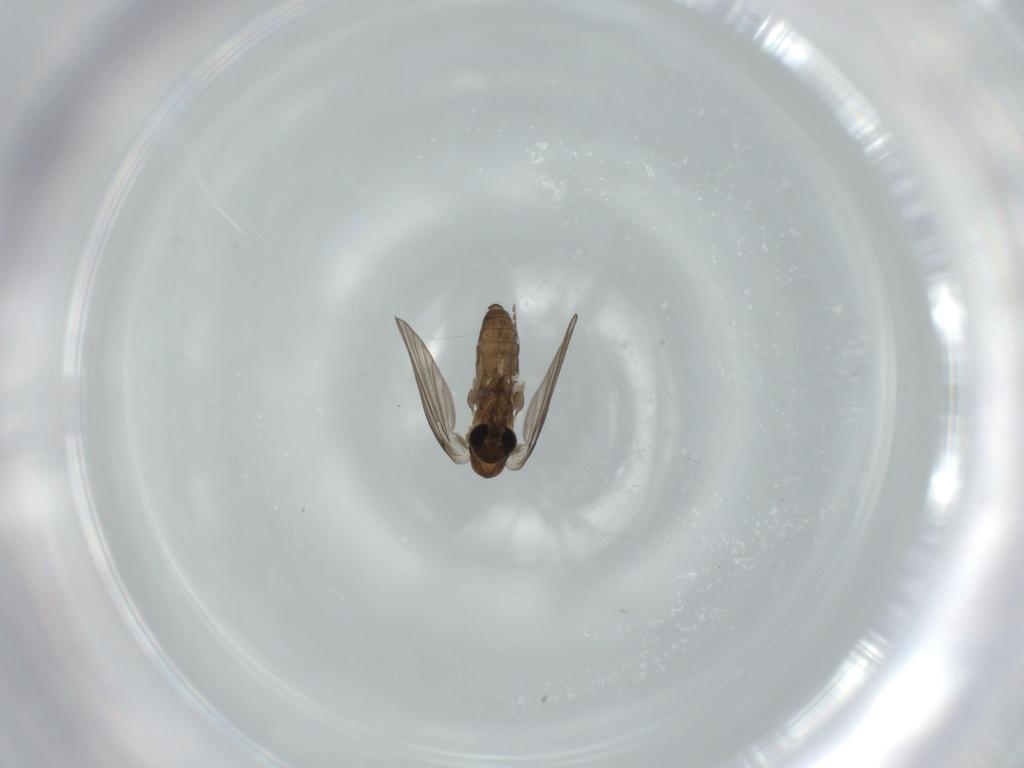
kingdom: Animalia
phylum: Arthropoda
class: Insecta
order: Diptera
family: Psychodidae
